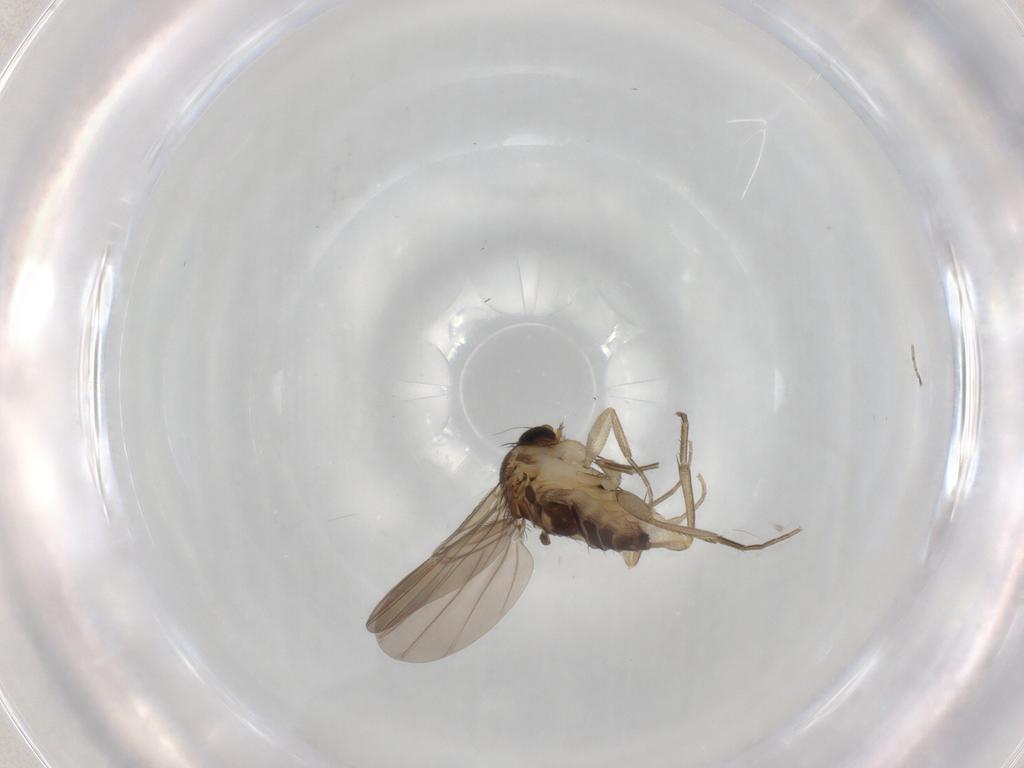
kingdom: Animalia
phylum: Arthropoda
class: Insecta
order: Diptera
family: Phoridae
